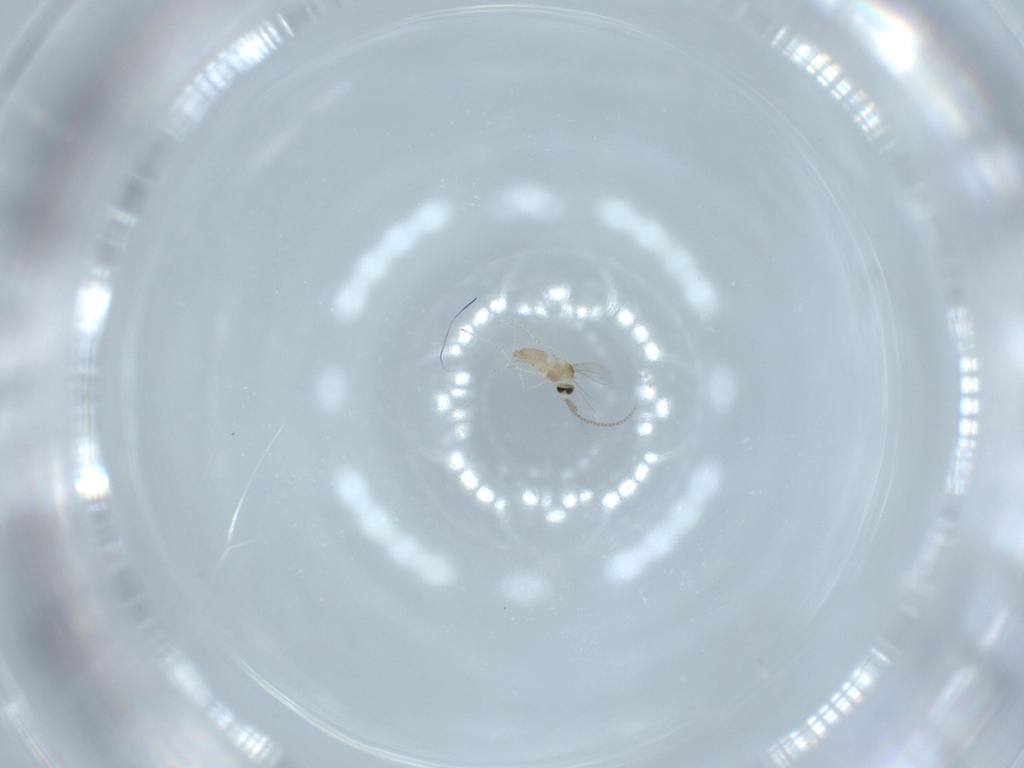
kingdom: Animalia
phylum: Arthropoda
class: Insecta
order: Diptera
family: Cecidomyiidae
